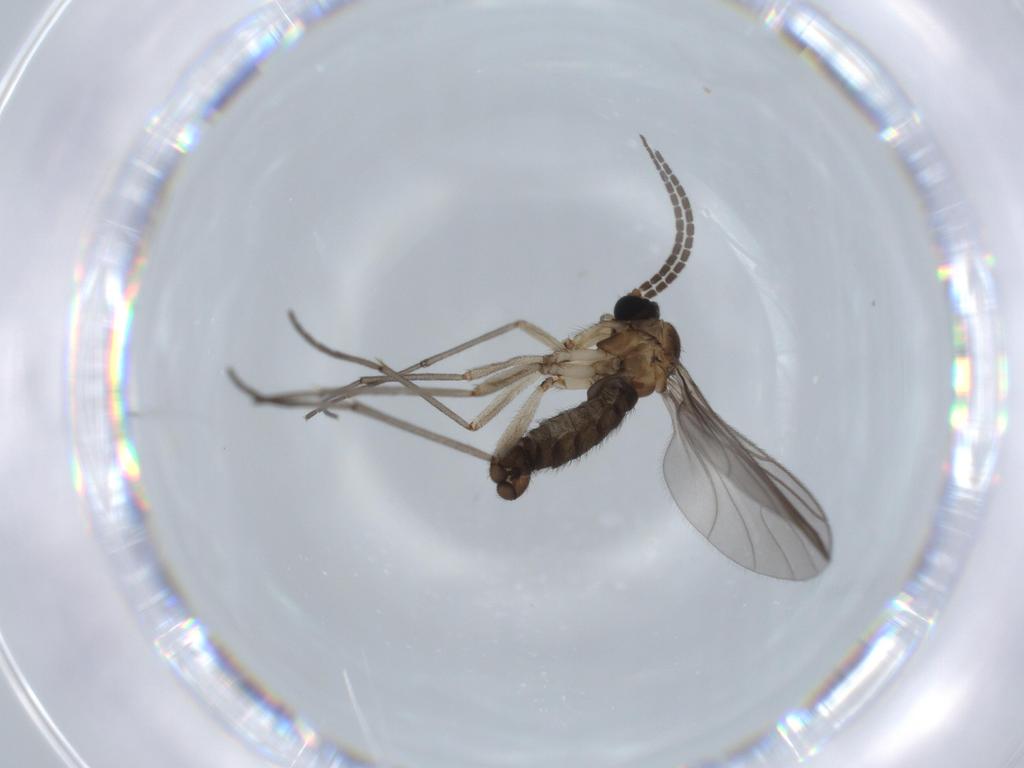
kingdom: Animalia
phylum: Arthropoda
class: Insecta
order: Diptera
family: Sciaridae
